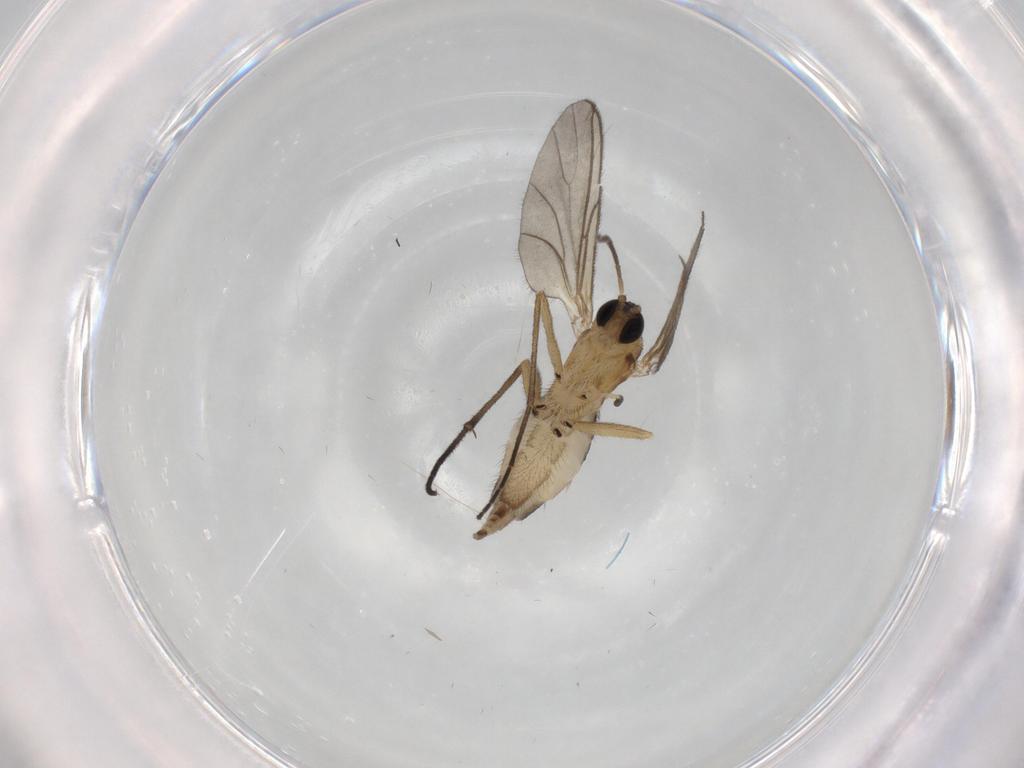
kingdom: Animalia
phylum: Arthropoda
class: Insecta
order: Diptera
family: Sciaridae
